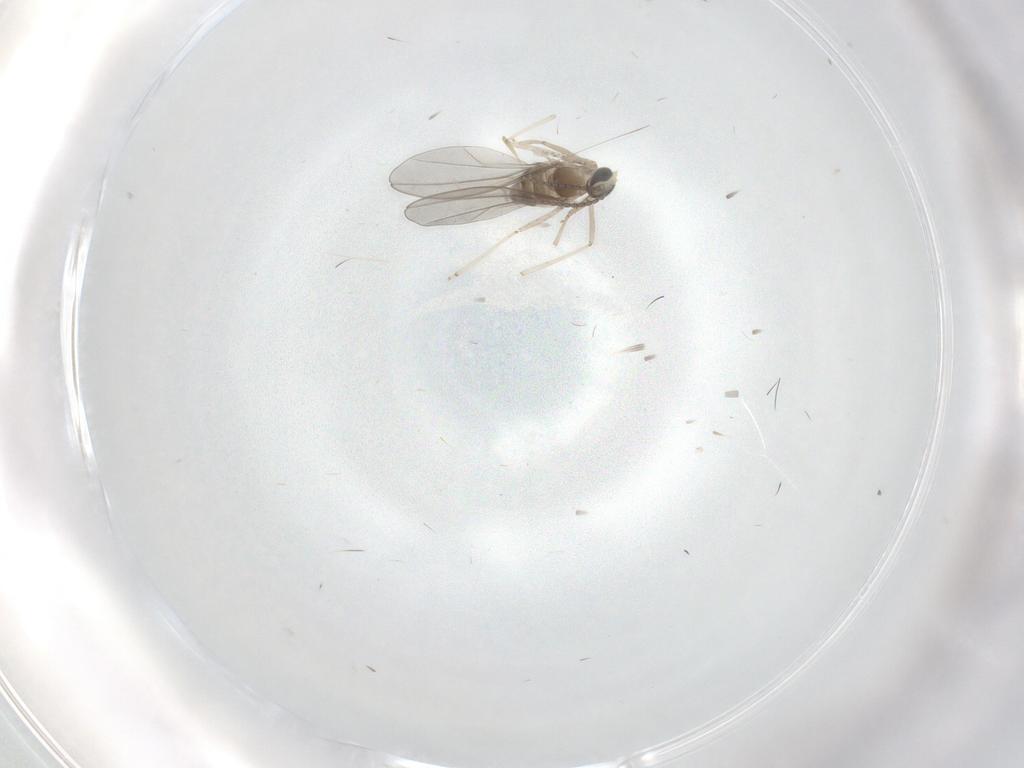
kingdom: Animalia
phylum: Arthropoda
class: Insecta
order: Diptera
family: Cecidomyiidae
